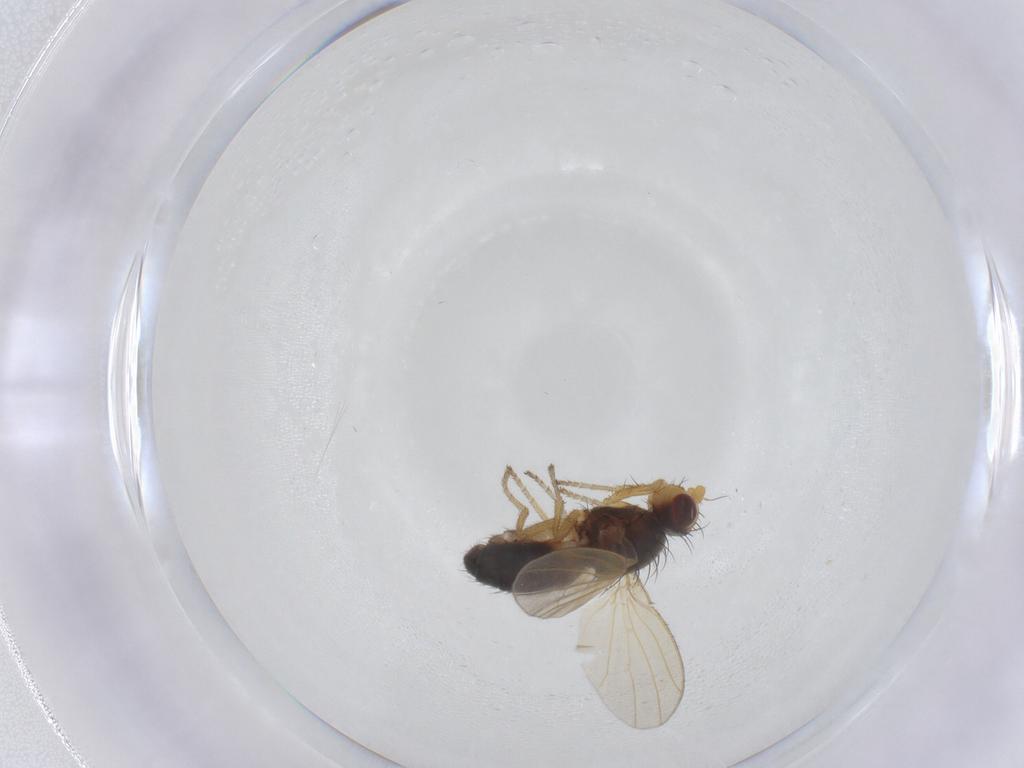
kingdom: Animalia
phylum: Arthropoda
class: Insecta
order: Diptera
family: Heleomyzidae
